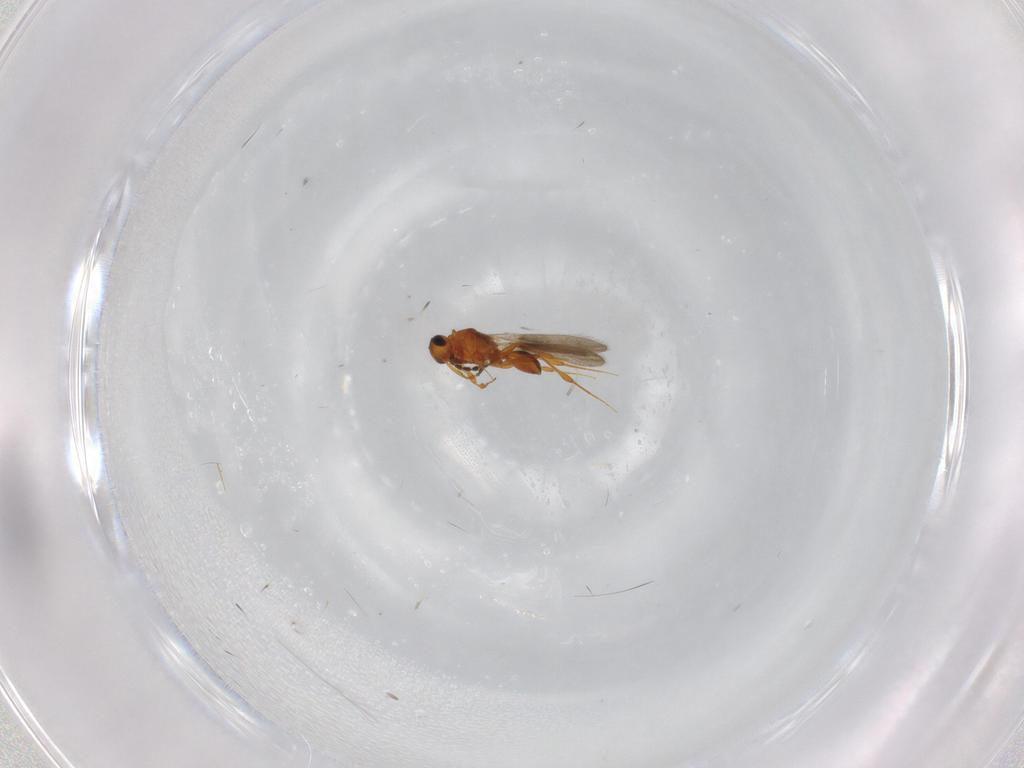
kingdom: Animalia
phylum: Arthropoda
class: Insecta
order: Hymenoptera
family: Platygastridae
